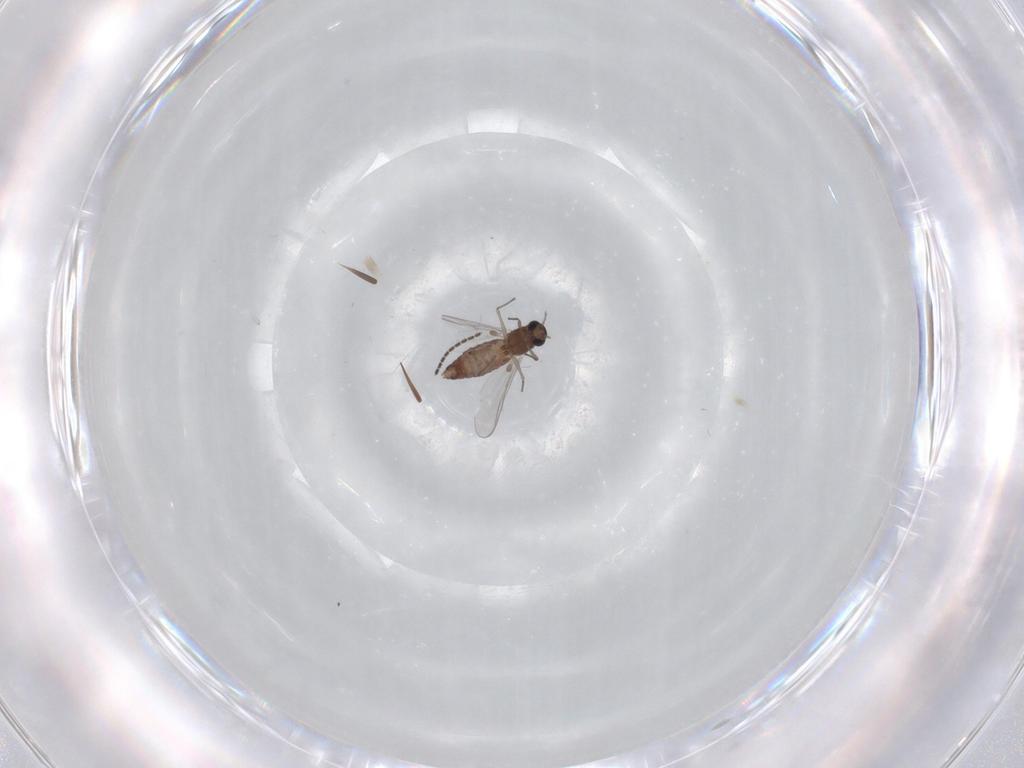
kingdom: Animalia
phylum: Arthropoda
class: Insecta
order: Diptera
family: Chironomidae
